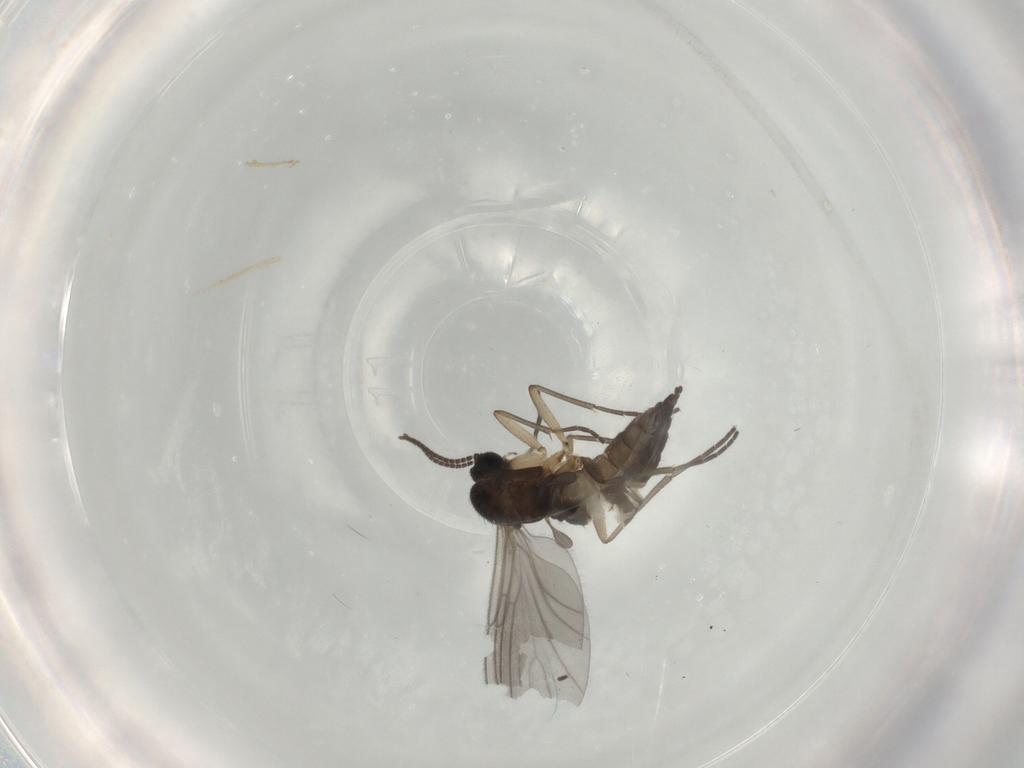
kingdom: Animalia
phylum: Arthropoda
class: Insecta
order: Diptera
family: Sciaridae
